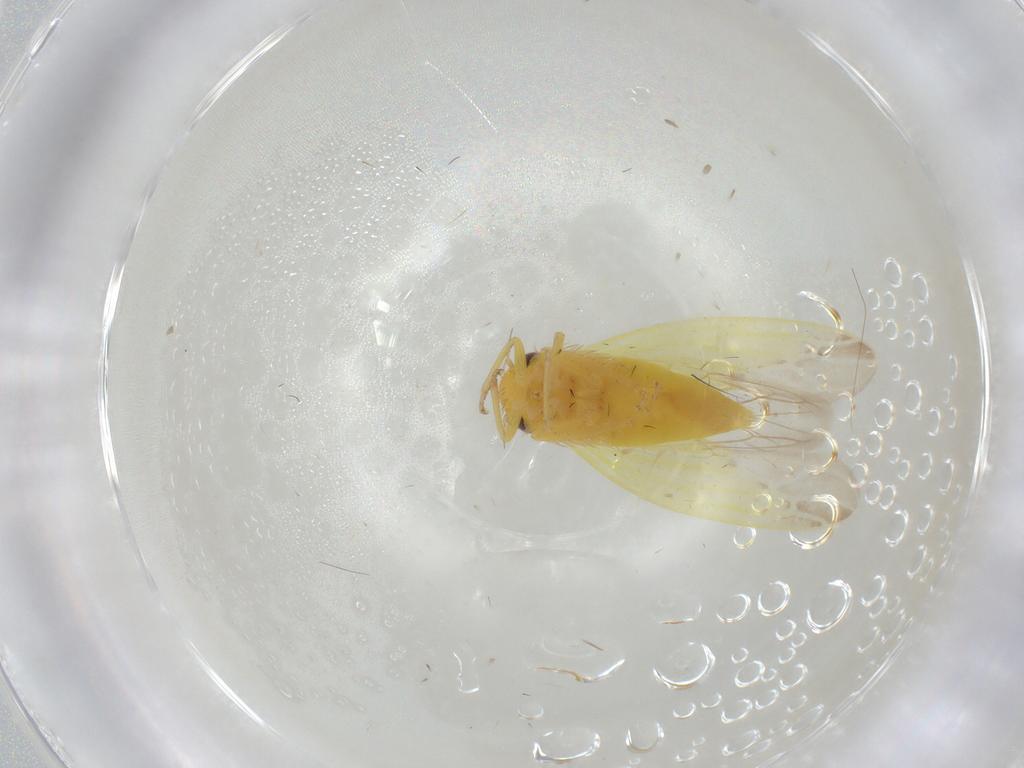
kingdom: Animalia
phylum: Arthropoda
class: Insecta
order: Hemiptera
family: Cicadellidae
